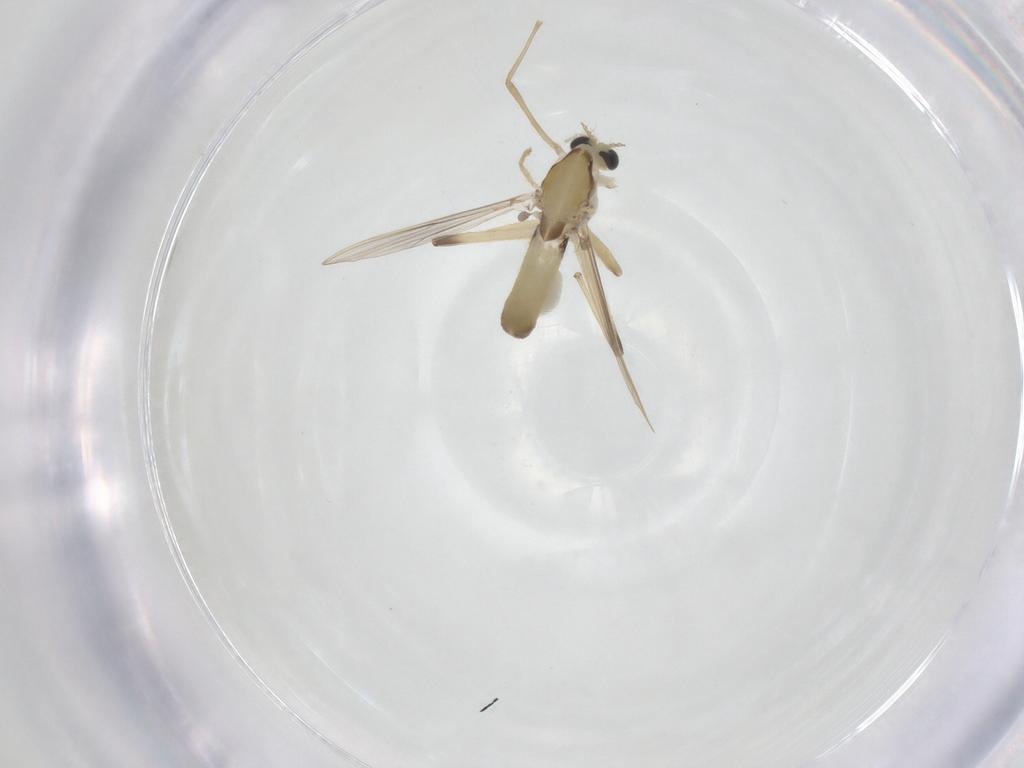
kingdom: Animalia
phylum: Arthropoda
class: Insecta
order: Diptera
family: Chironomidae
